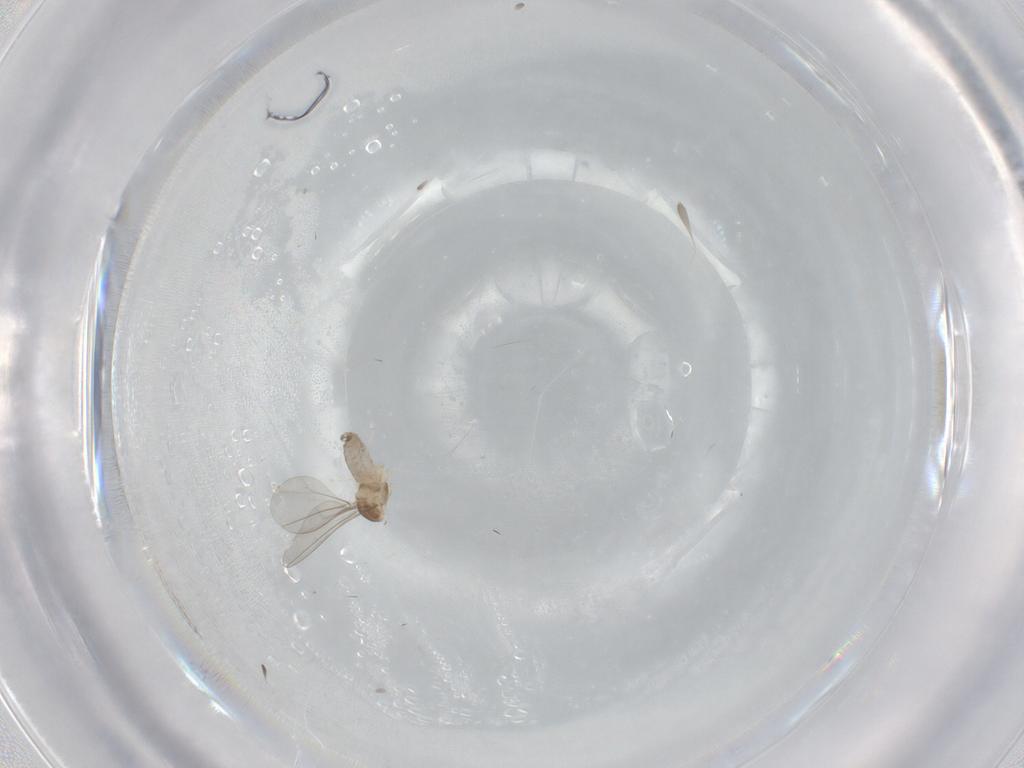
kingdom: Animalia
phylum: Arthropoda
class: Insecta
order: Diptera
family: Cecidomyiidae
